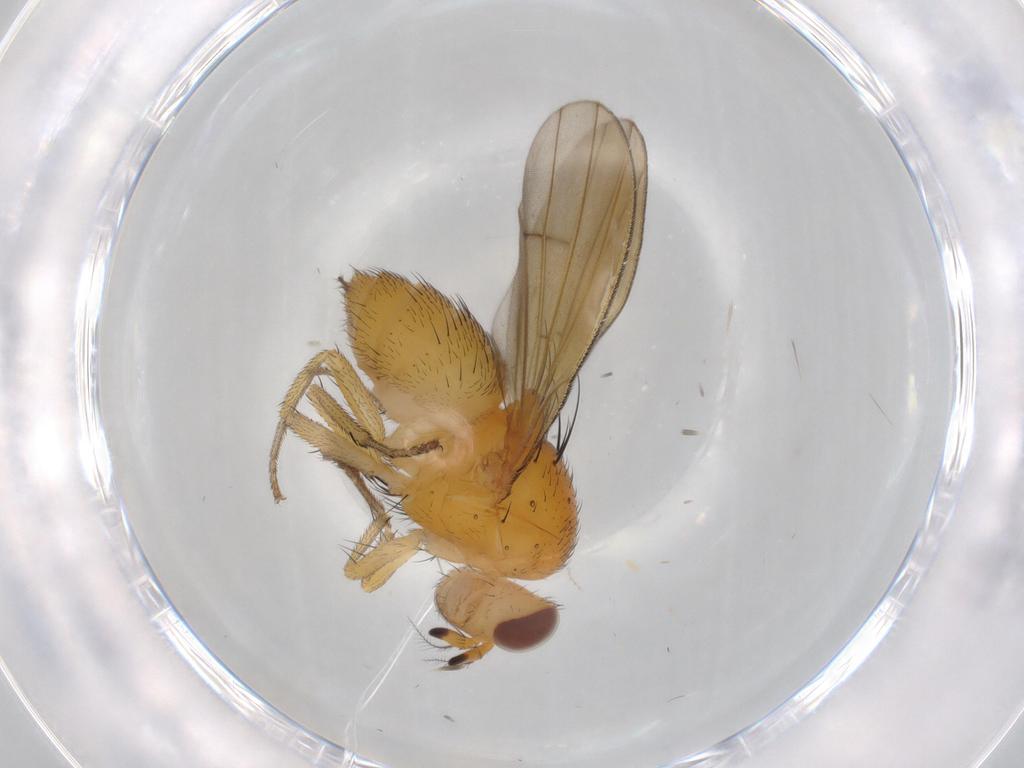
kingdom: Animalia
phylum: Arthropoda
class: Insecta
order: Diptera
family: Lauxaniidae
